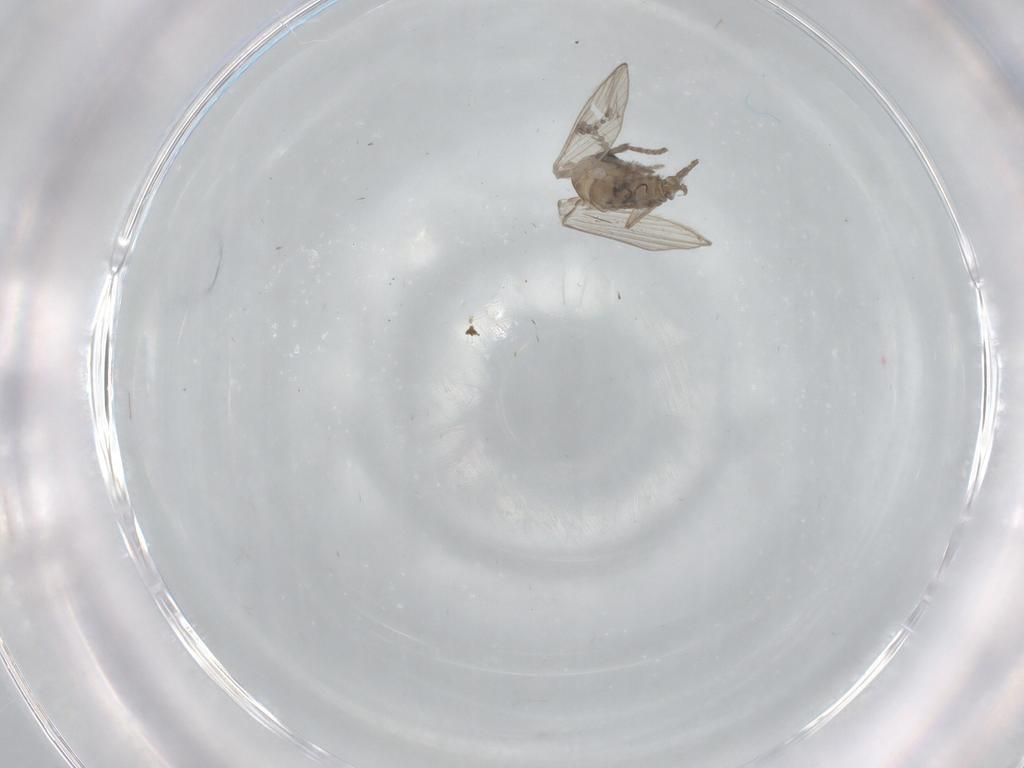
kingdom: Animalia
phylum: Arthropoda
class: Insecta
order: Diptera
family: Psychodidae
